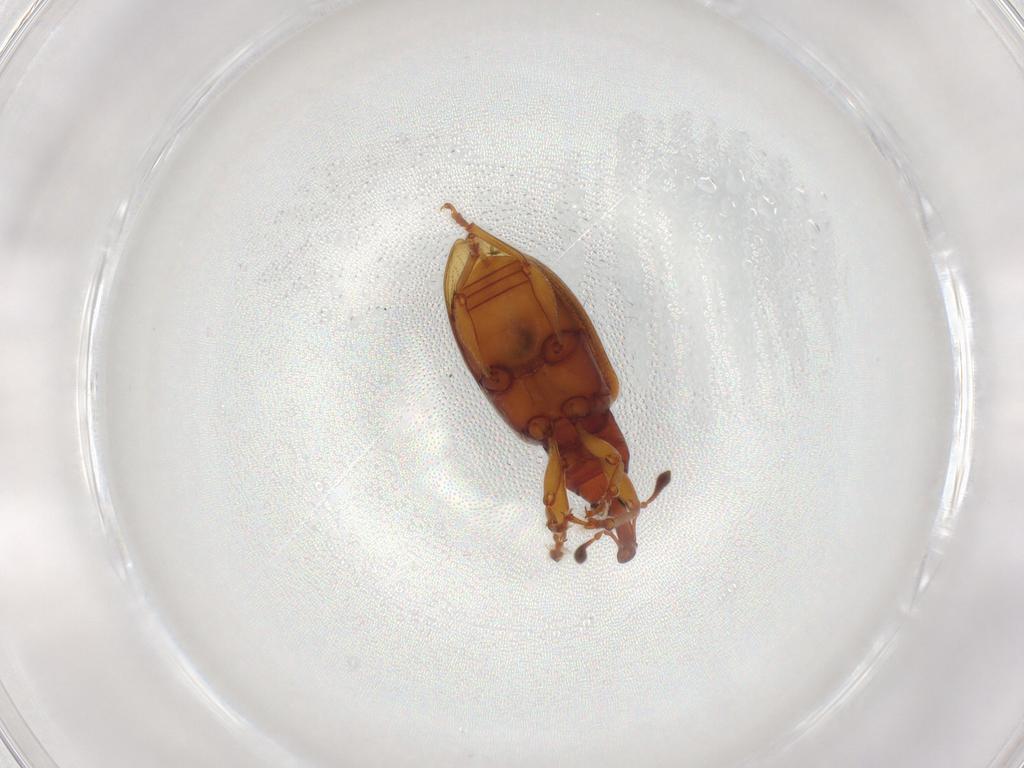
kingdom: Animalia
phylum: Arthropoda
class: Insecta
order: Coleoptera
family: Curculionidae
